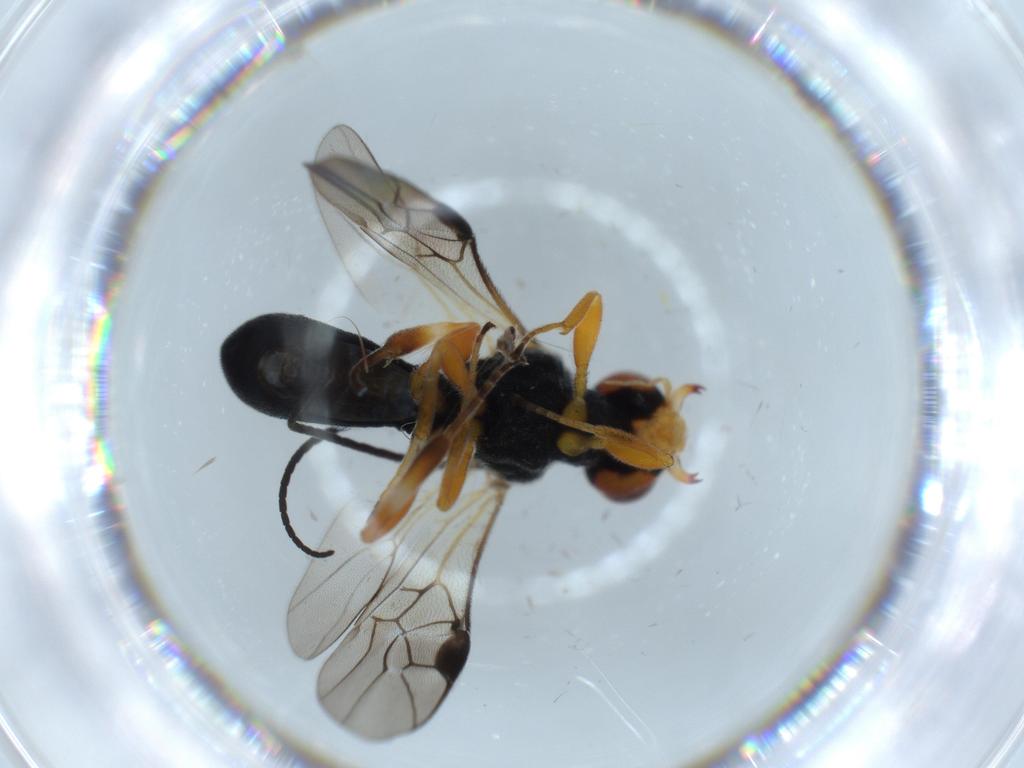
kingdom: Animalia
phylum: Arthropoda
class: Insecta
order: Hymenoptera
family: Braconidae
